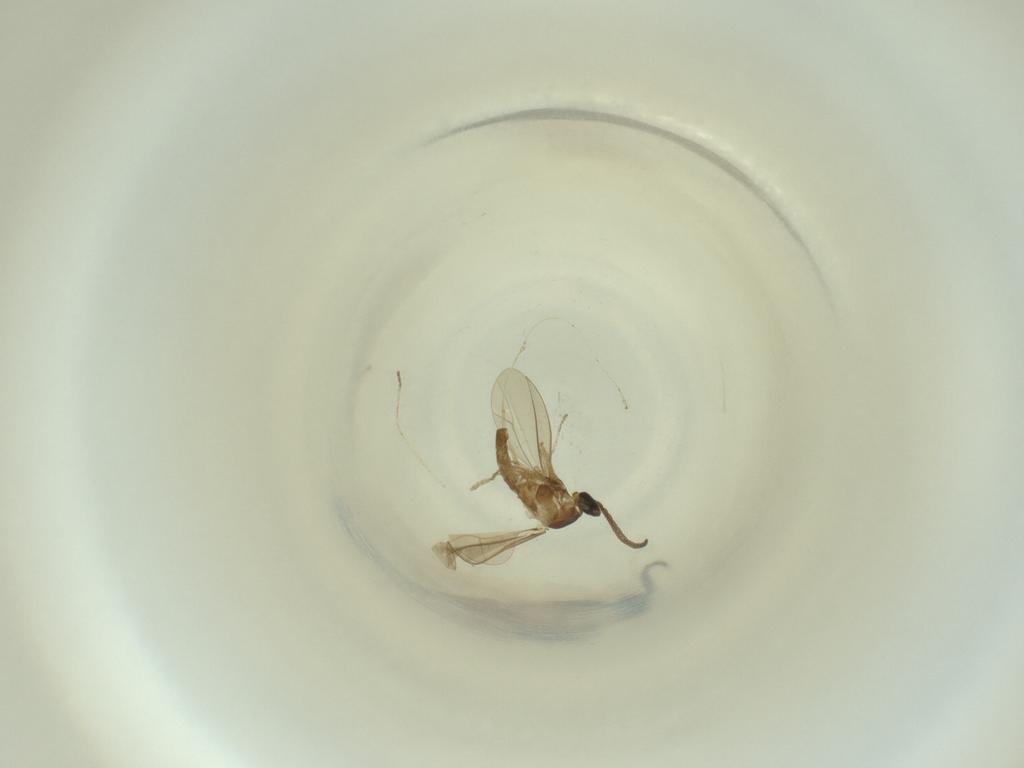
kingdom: Animalia
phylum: Arthropoda
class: Insecta
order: Diptera
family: Cecidomyiidae
